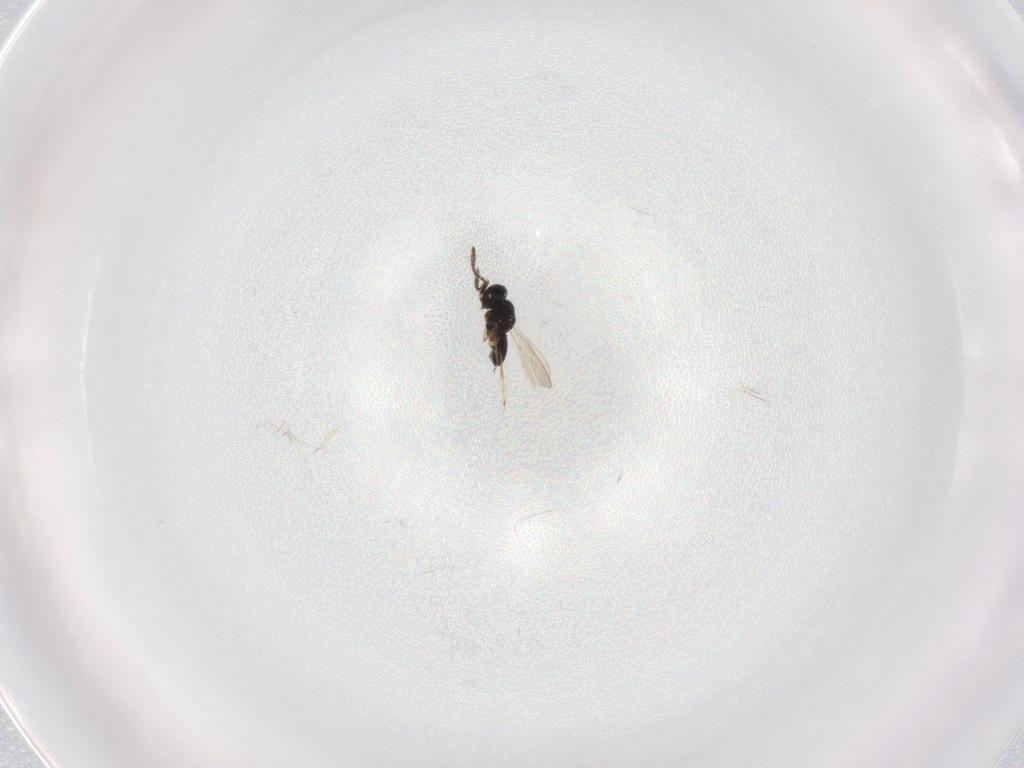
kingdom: Animalia
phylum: Arthropoda
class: Insecta
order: Hymenoptera
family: Scelionidae
